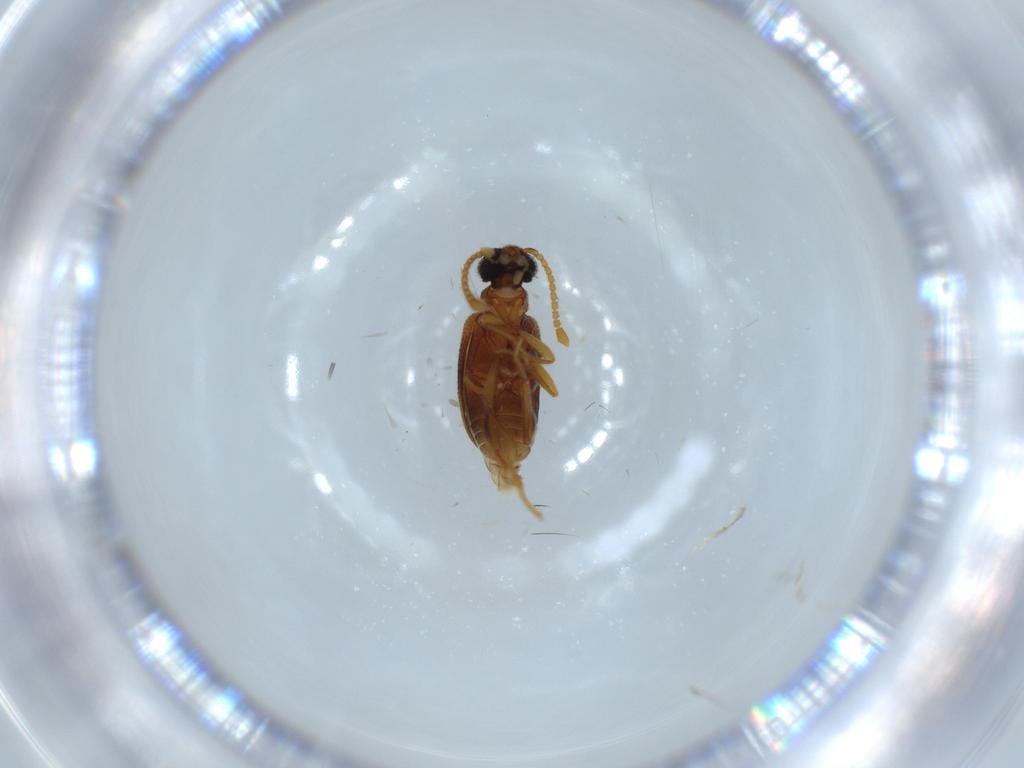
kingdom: Animalia
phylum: Arthropoda
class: Insecta
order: Coleoptera
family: Aderidae
